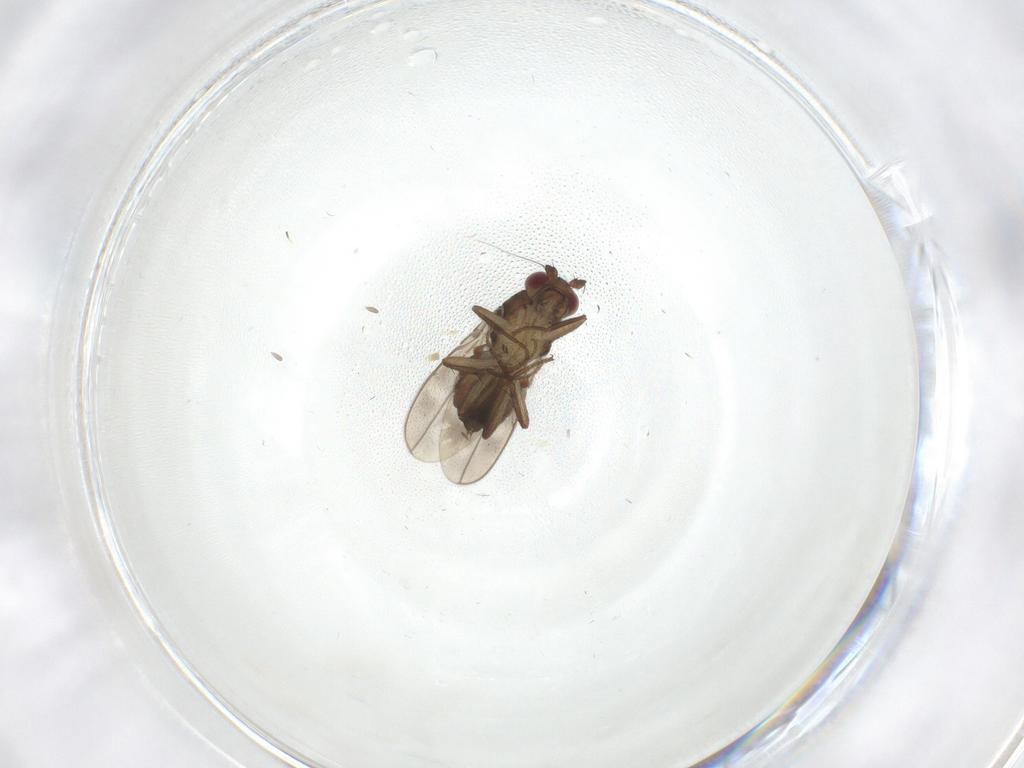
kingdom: Animalia
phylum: Arthropoda
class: Insecta
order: Diptera
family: Sphaeroceridae
